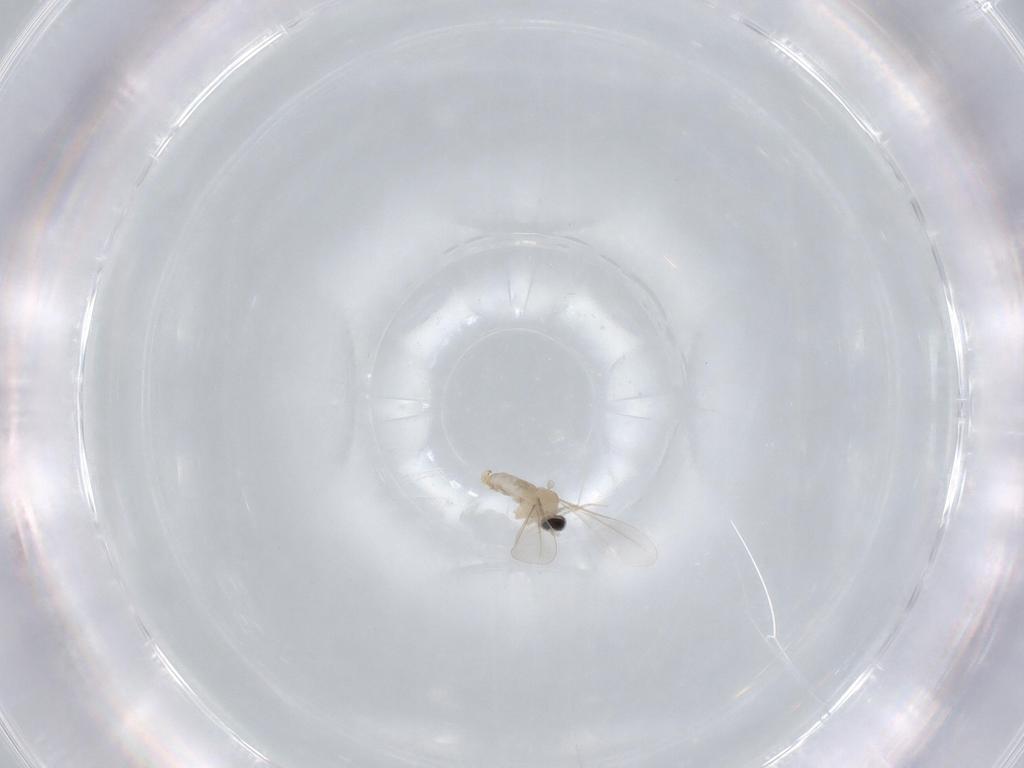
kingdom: Animalia
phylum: Arthropoda
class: Insecta
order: Diptera
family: Cecidomyiidae
